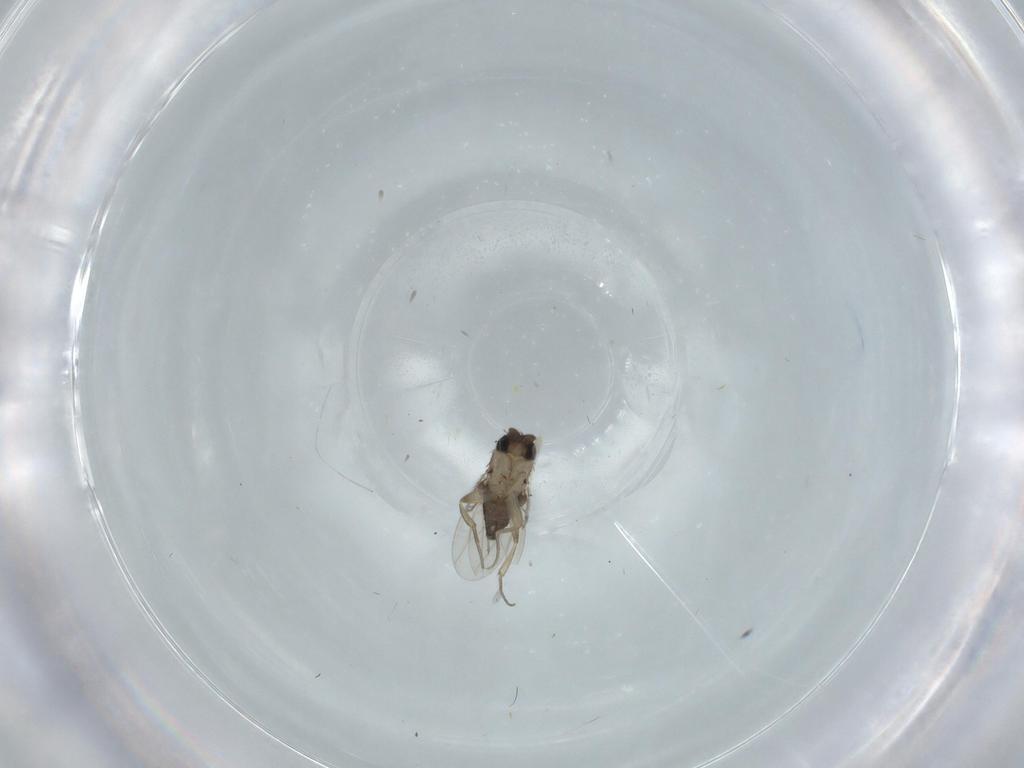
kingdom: Animalia
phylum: Arthropoda
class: Insecta
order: Diptera
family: Phoridae
